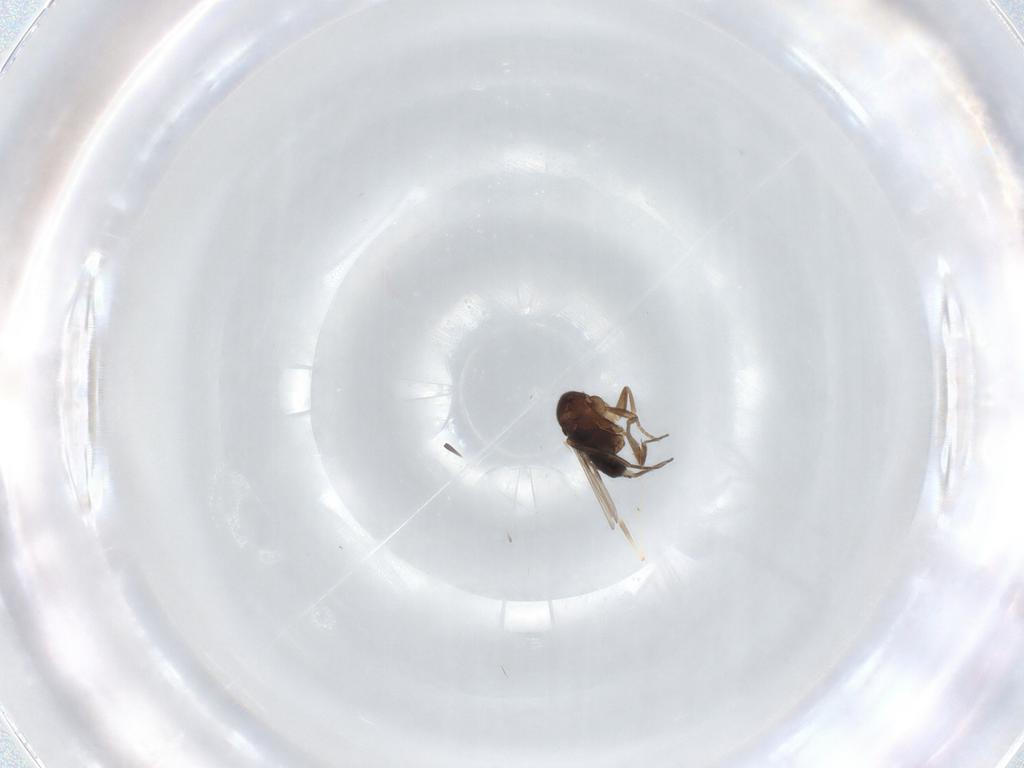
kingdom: Animalia
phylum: Arthropoda
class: Insecta
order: Diptera
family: Phoridae
